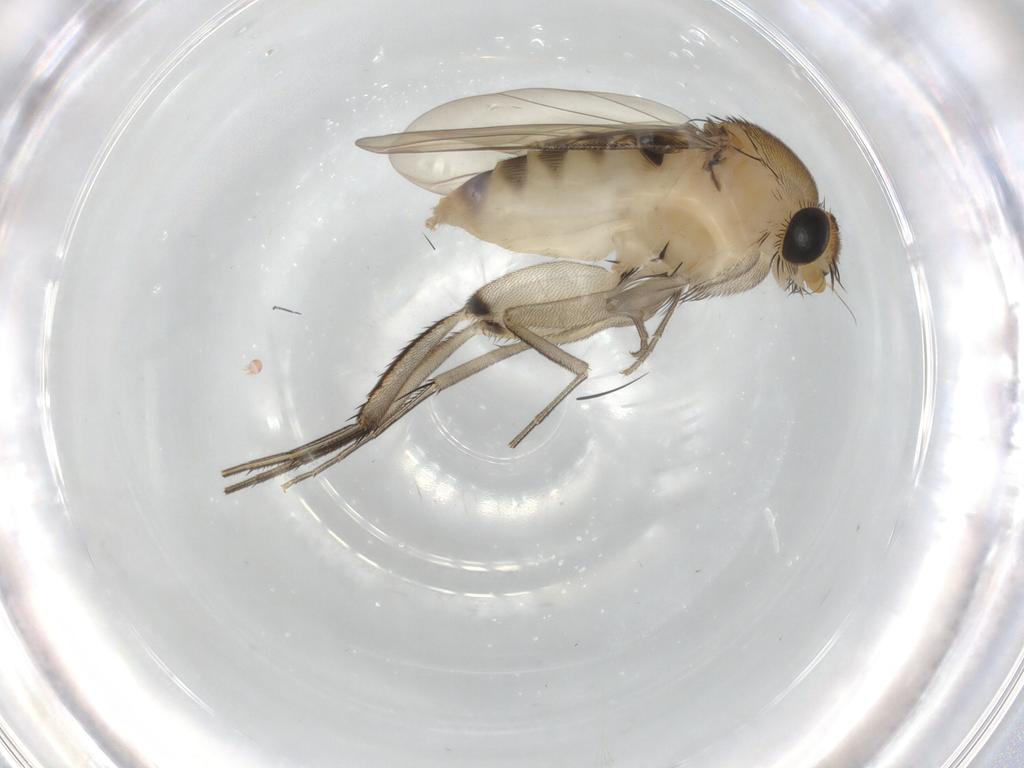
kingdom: Animalia
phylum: Arthropoda
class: Insecta
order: Diptera
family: Phoridae
